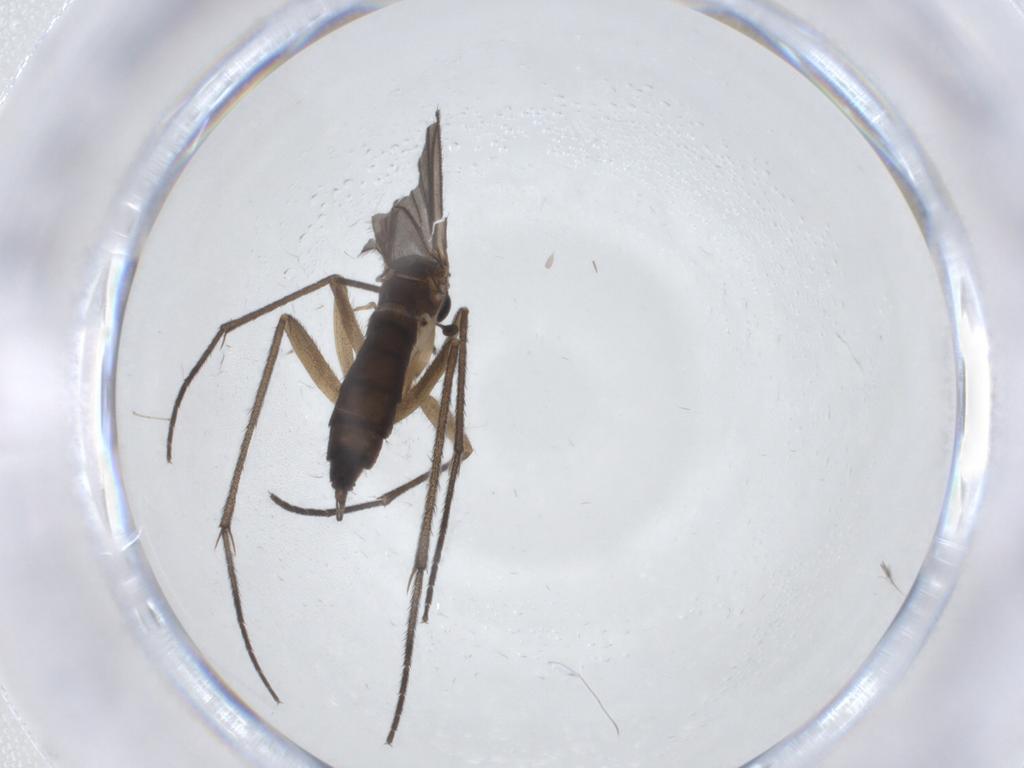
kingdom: Animalia
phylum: Arthropoda
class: Insecta
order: Diptera
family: Sciaridae
